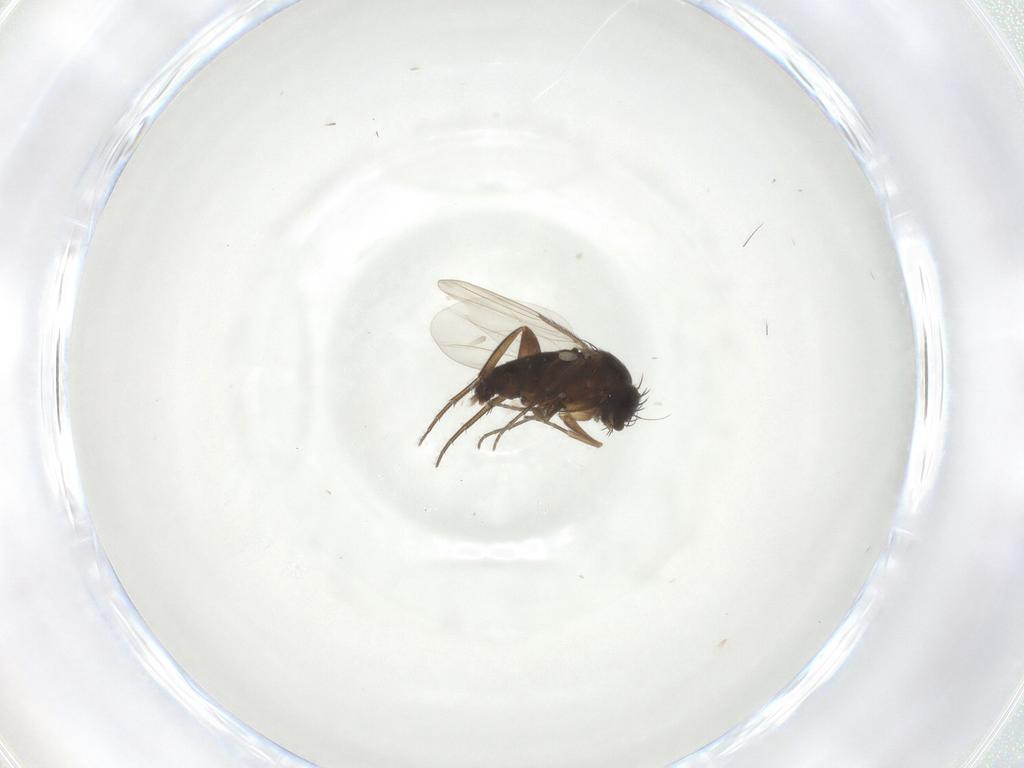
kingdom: Animalia
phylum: Arthropoda
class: Insecta
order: Diptera
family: Phoridae
